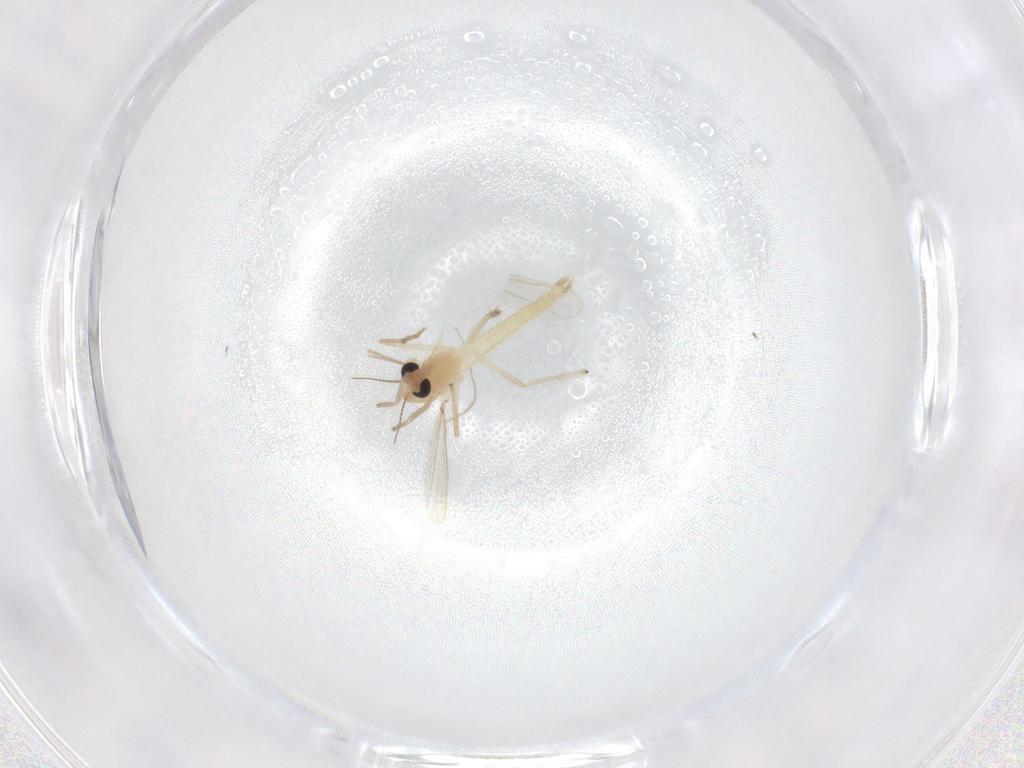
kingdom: Animalia
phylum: Arthropoda
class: Insecta
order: Diptera
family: Chironomidae
